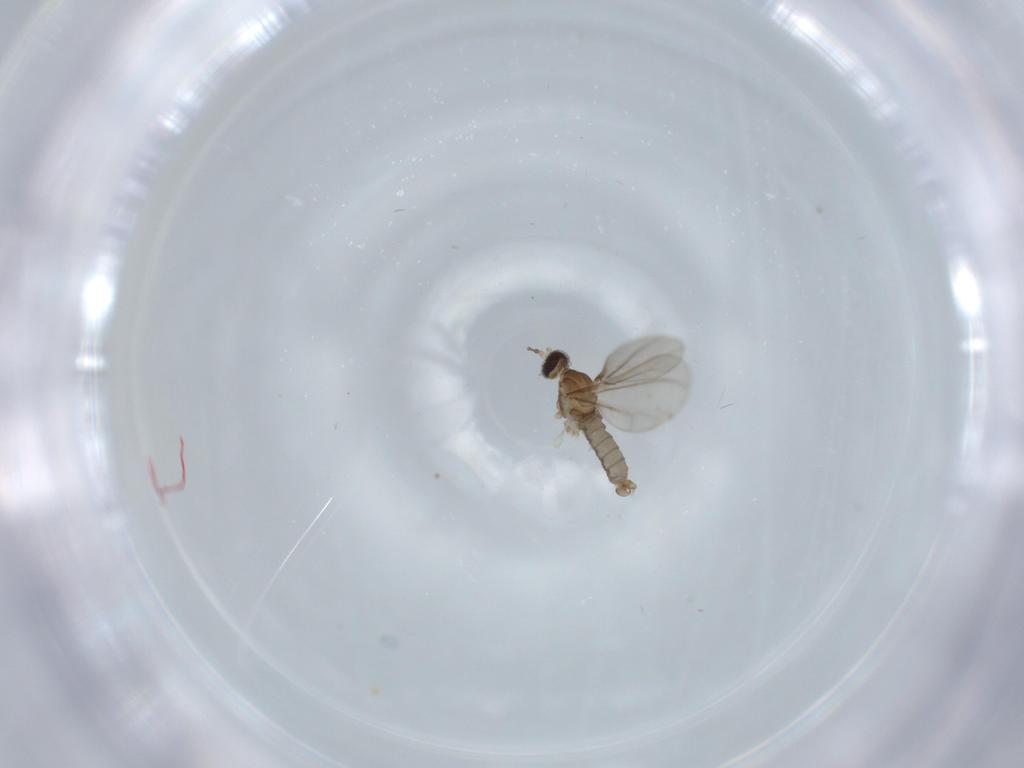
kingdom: Animalia
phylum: Arthropoda
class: Insecta
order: Diptera
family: Cecidomyiidae
